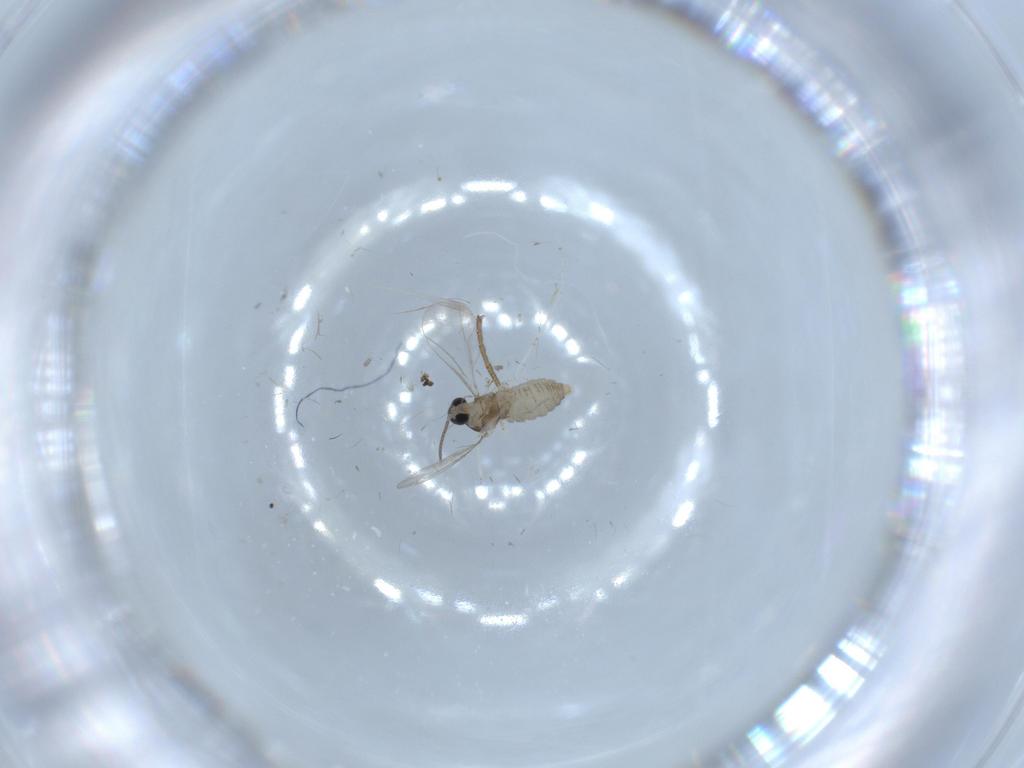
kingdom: Animalia
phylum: Arthropoda
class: Insecta
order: Diptera
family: Cecidomyiidae
